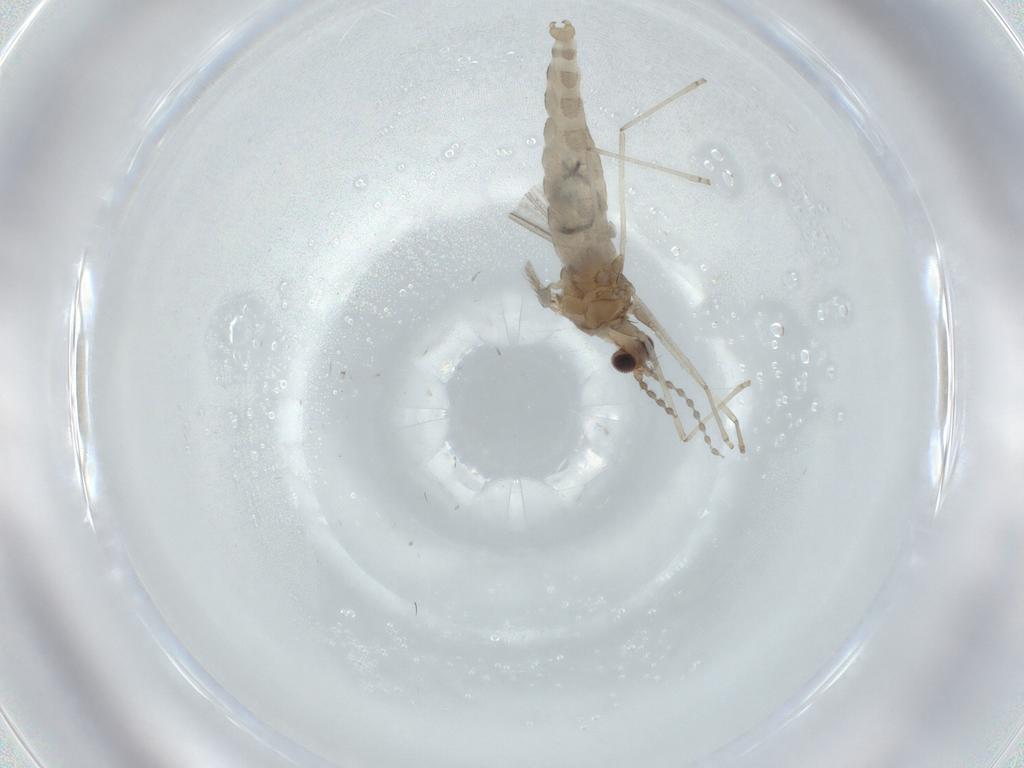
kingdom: Animalia
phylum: Arthropoda
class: Insecta
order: Diptera
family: Cecidomyiidae
